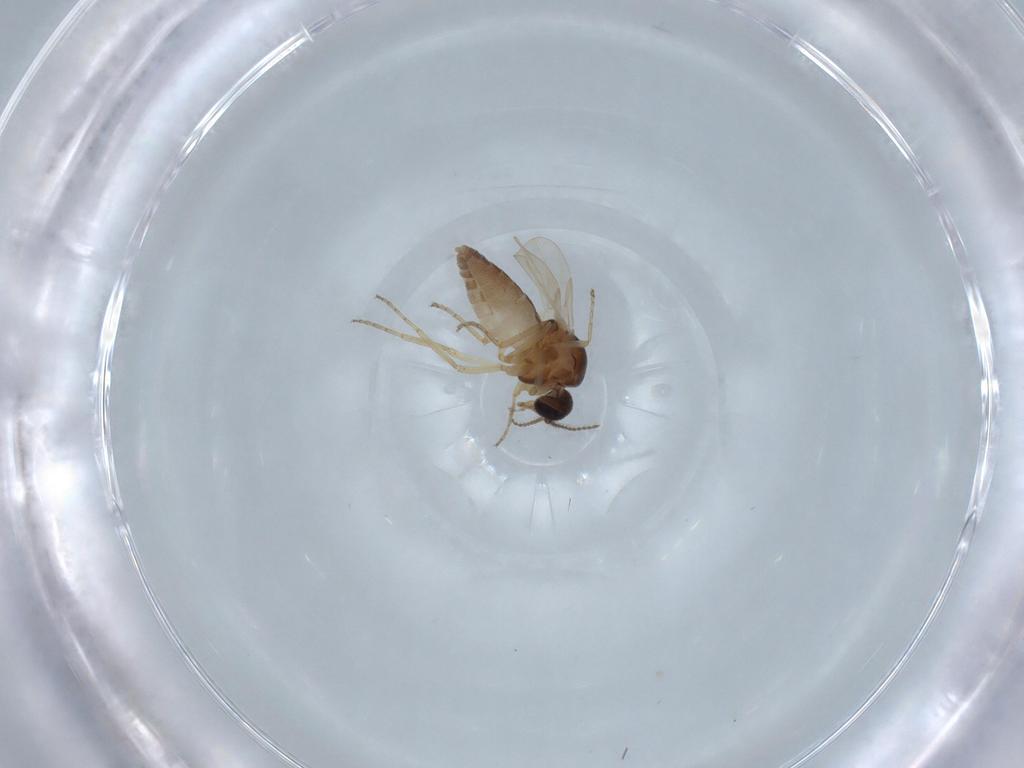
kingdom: Animalia
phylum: Arthropoda
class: Insecta
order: Diptera
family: Ceratopogonidae
